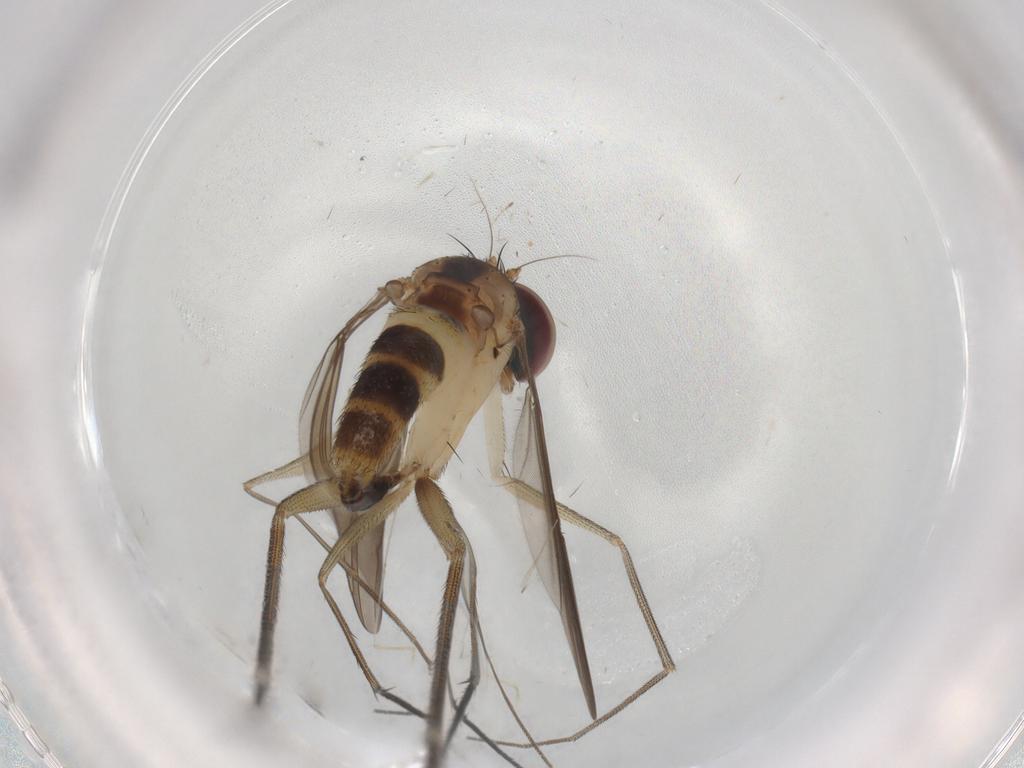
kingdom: Animalia
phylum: Arthropoda
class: Insecta
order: Diptera
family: Dolichopodidae
